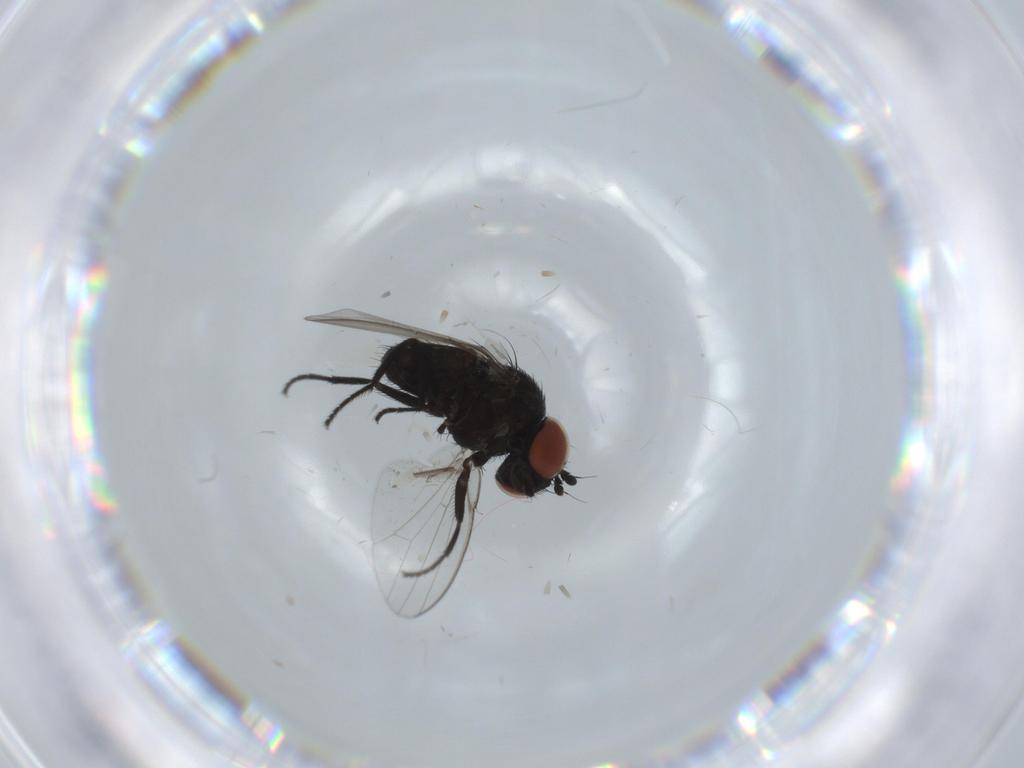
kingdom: Animalia
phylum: Arthropoda
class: Insecta
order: Diptera
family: Milichiidae
